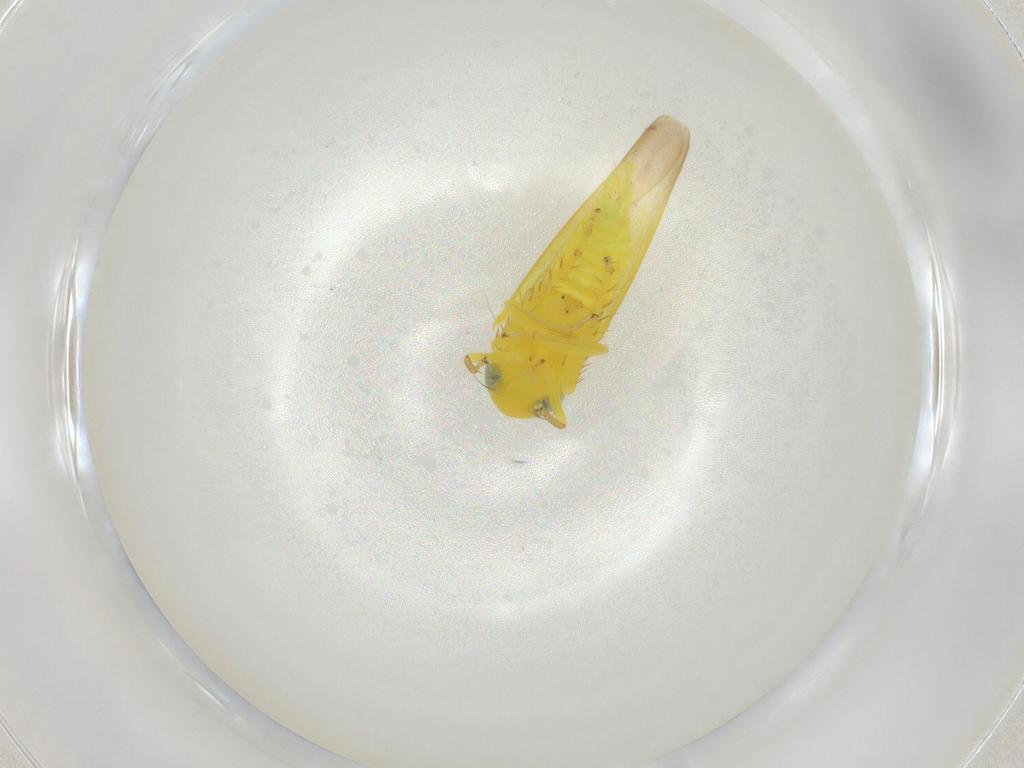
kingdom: Animalia
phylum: Arthropoda
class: Insecta
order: Hemiptera
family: Cicadellidae
